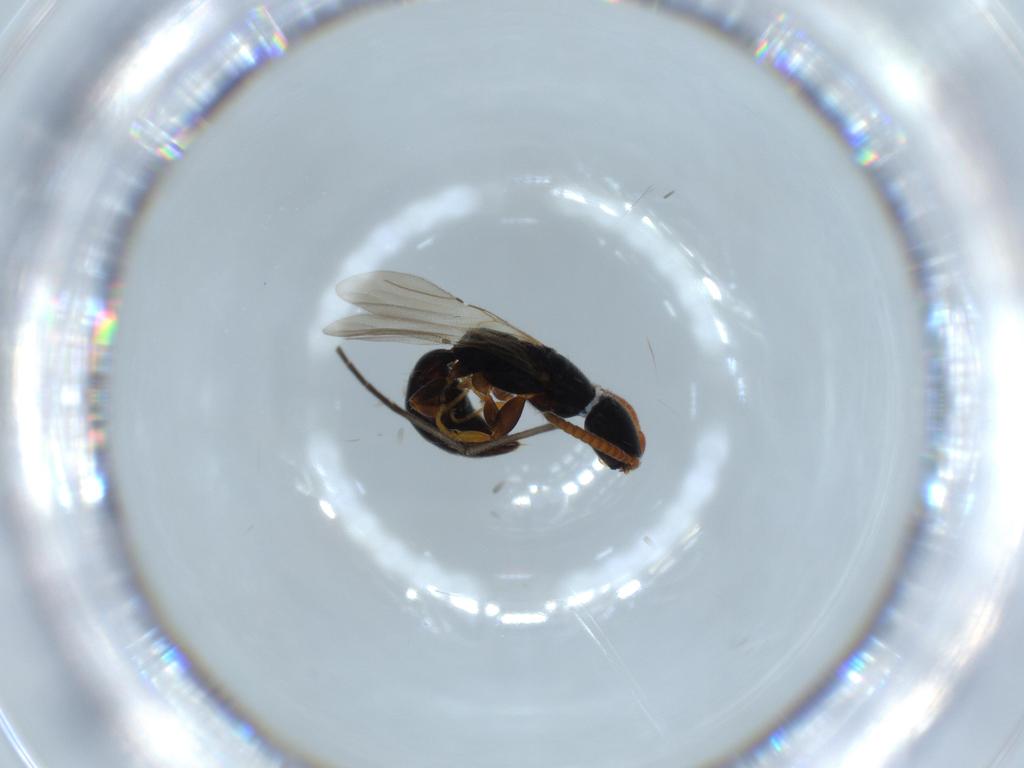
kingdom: Animalia
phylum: Arthropoda
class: Insecta
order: Hymenoptera
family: Bethylidae
